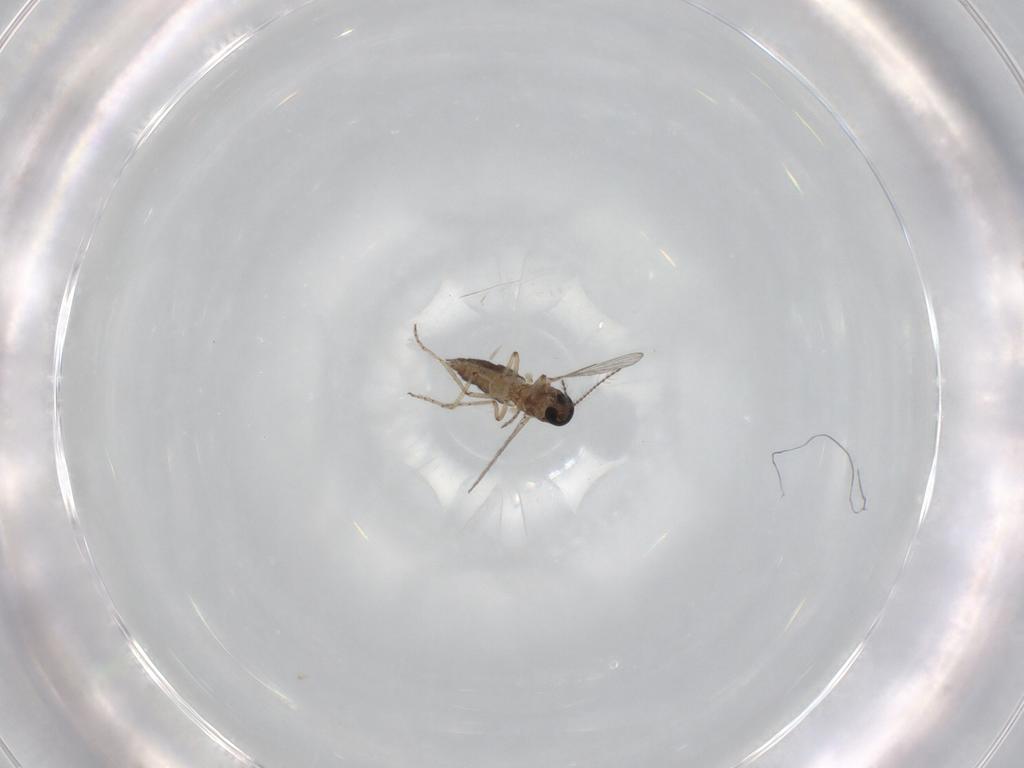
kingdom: Animalia
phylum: Arthropoda
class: Insecta
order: Diptera
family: Ceratopogonidae
